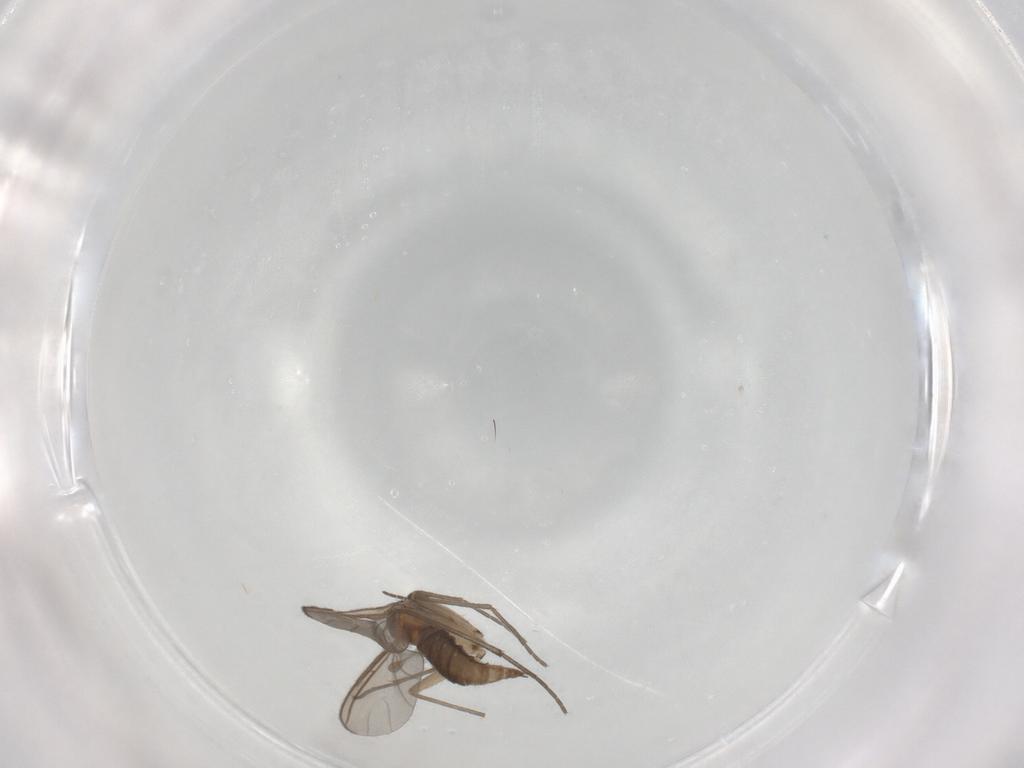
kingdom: Animalia
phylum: Arthropoda
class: Insecta
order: Diptera
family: Sciaridae
